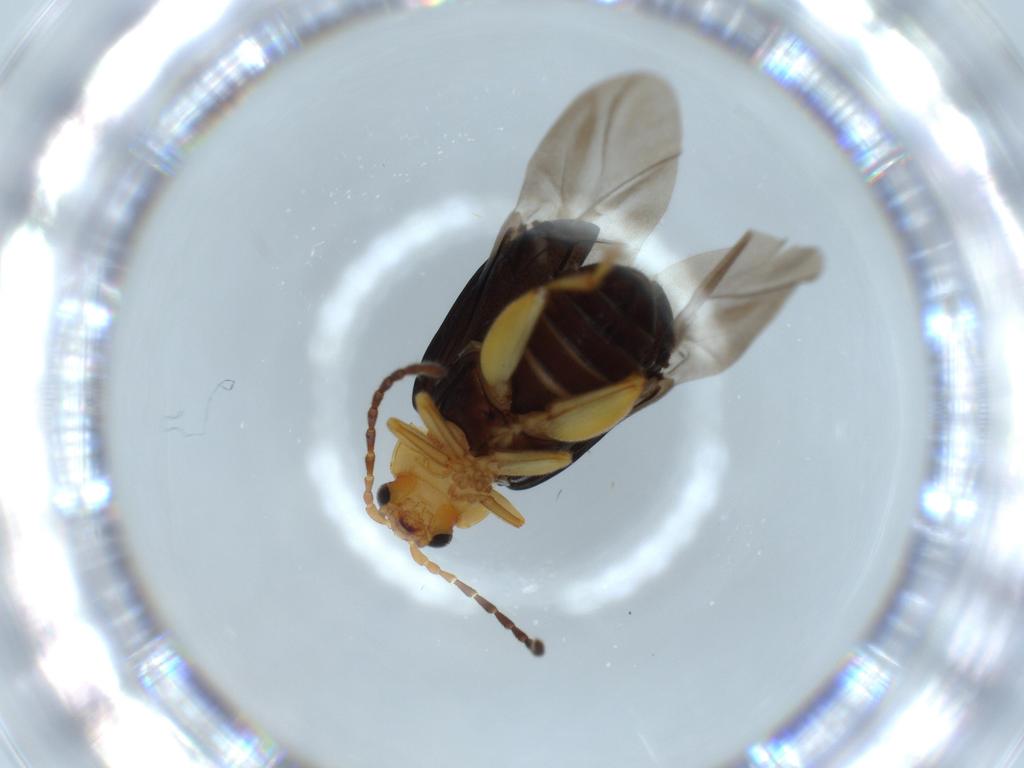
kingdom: Animalia
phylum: Arthropoda
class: Insecta
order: Coleoptera
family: Chrysomelidae
